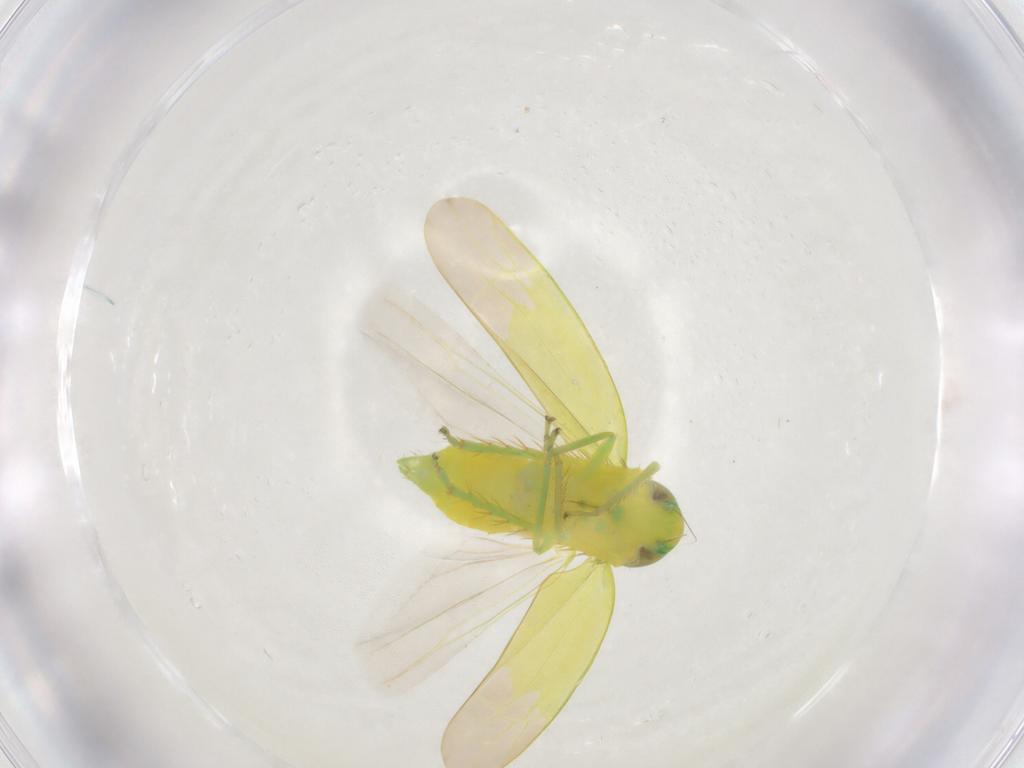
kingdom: Animalia
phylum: Arthropoda
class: Insecta
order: Hemiptera
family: Cicadellidae
